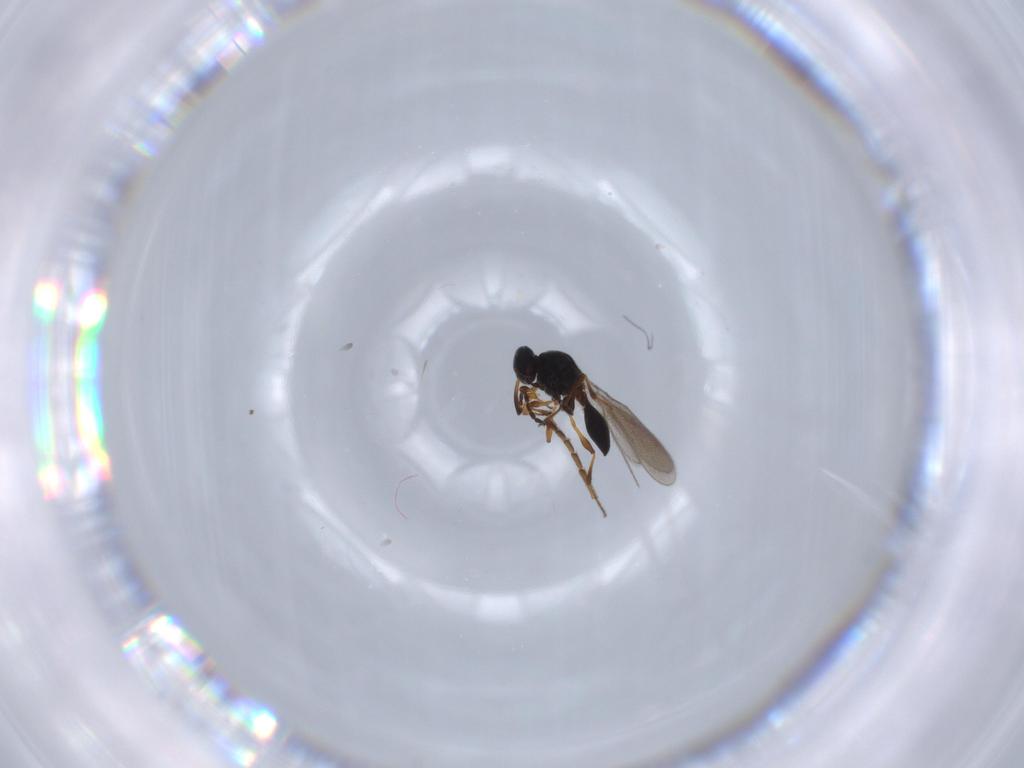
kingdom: Animalia
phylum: Arthropoda
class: Insecta
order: Hymenoptera
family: Platygastridae
